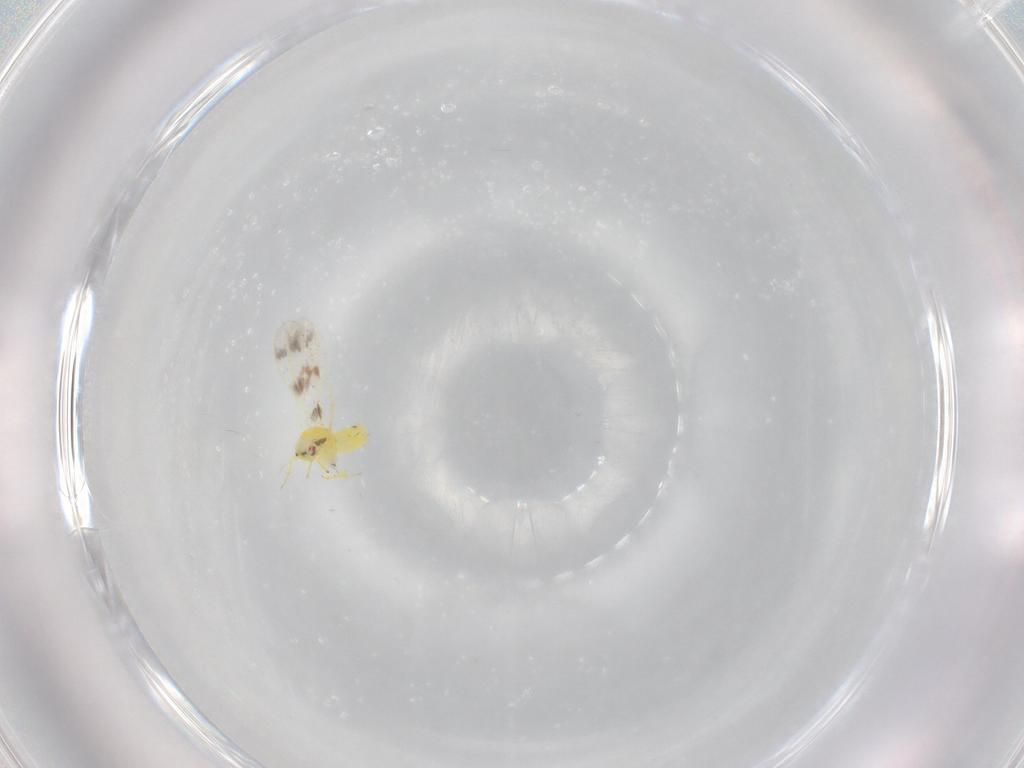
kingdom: Animalia
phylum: Arthropoda
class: Insecta
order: Hemiptera
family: Aleyrodidae
